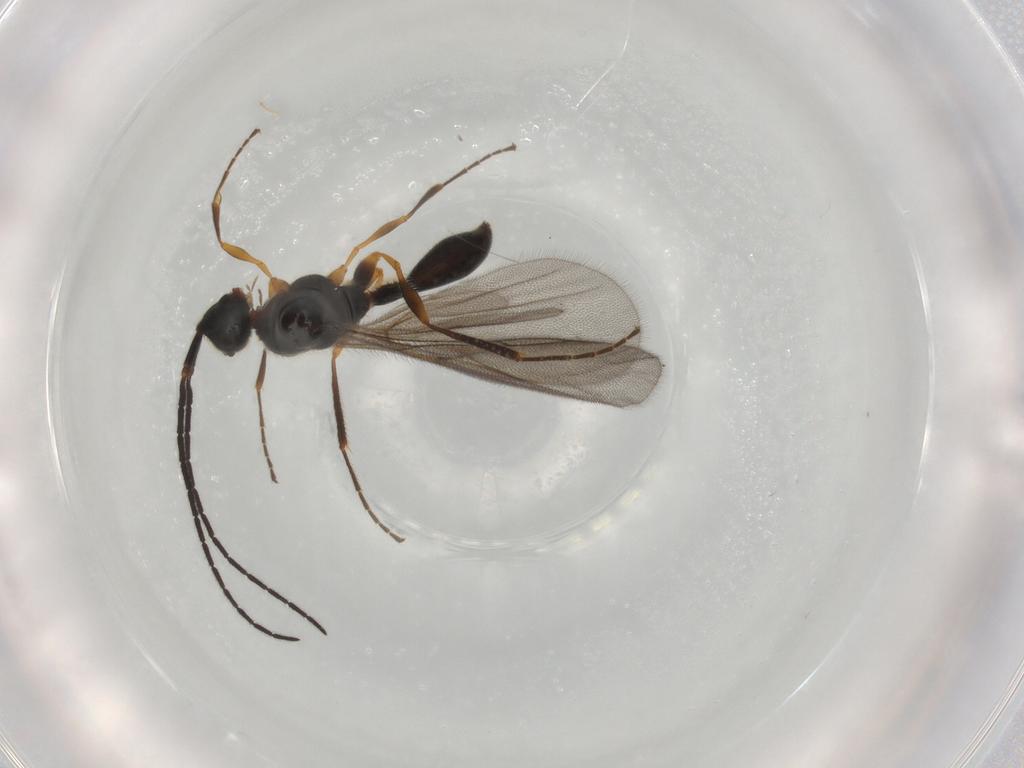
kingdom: Animalia
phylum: Arthropoda
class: Insecta
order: Hymenoptera
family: Diapriidae
